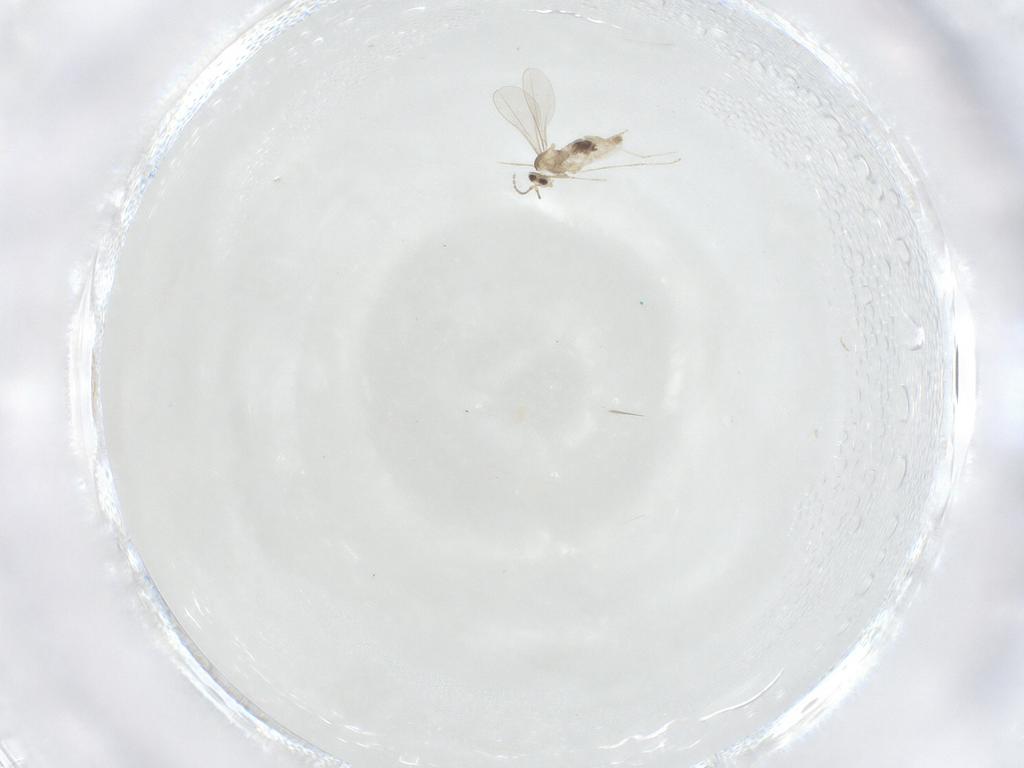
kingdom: Animalia
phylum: Arthropoda
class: Insecta
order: Diptera
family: Cecidomyiidae
